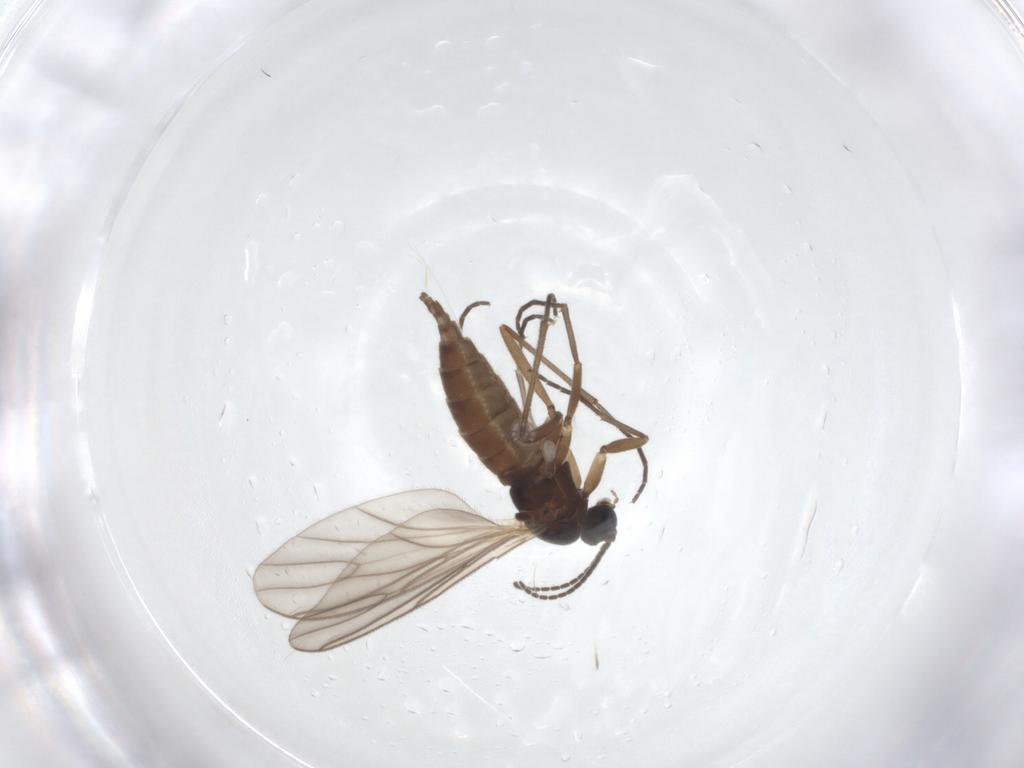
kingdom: Animalia
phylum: Arthropoda
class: Insecta
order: Diptera
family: Sciaridae
